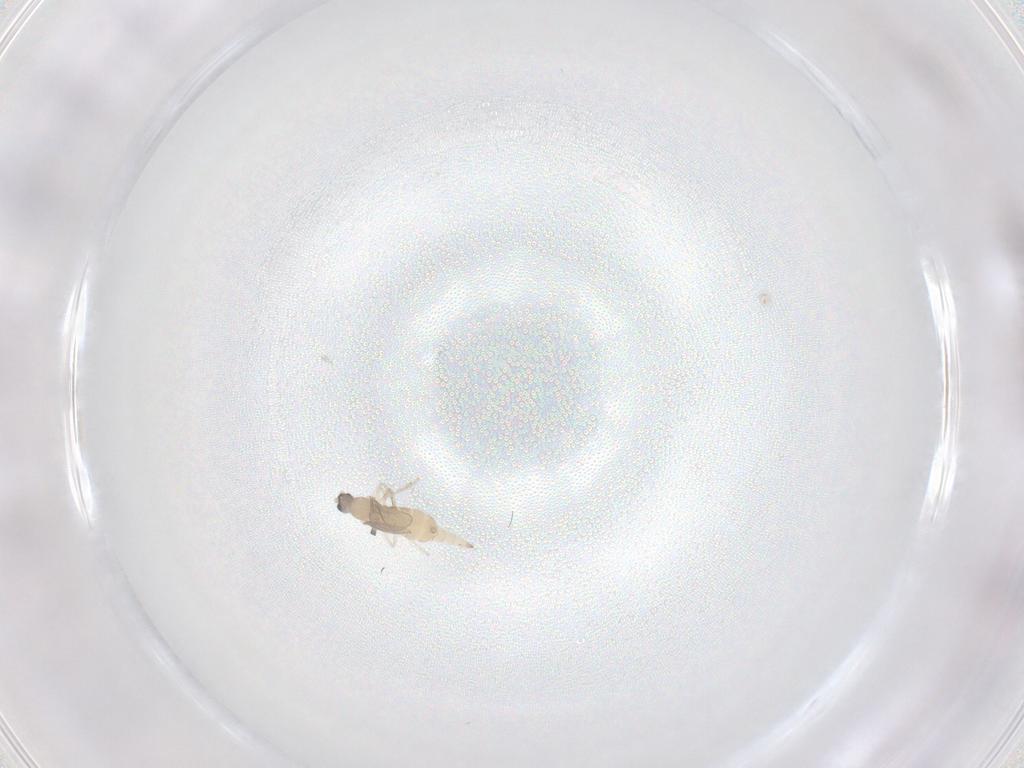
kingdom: Animalia
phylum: Arthropoda
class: Insecta
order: Diptera
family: Cecidomyiidae
